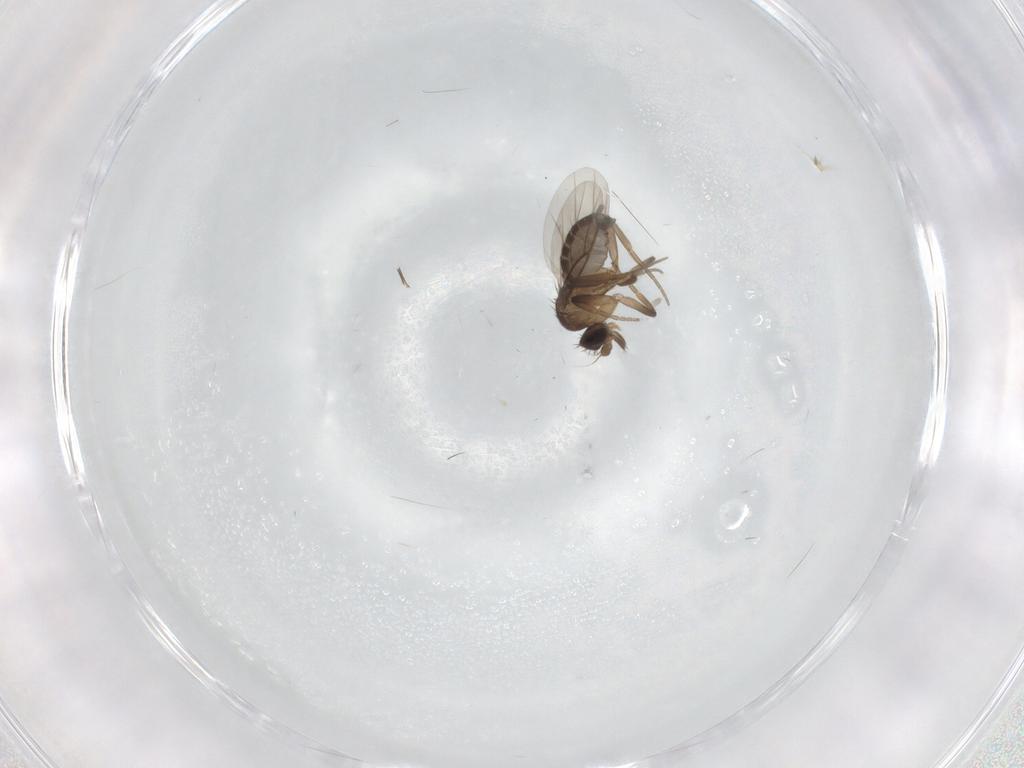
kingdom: Animalia
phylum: Arthropoda
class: Insecta
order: Diptera
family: Phoridae
